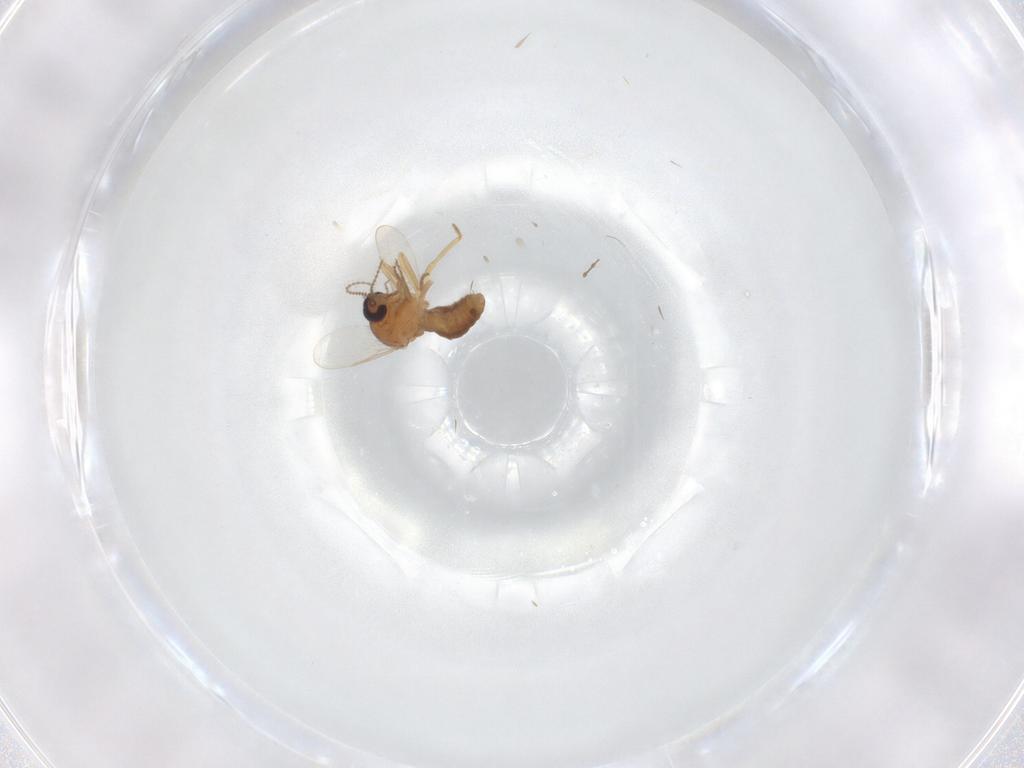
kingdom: Animalia
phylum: Arthropoda
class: Insecta
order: Diptera
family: Ceratopogonidae
